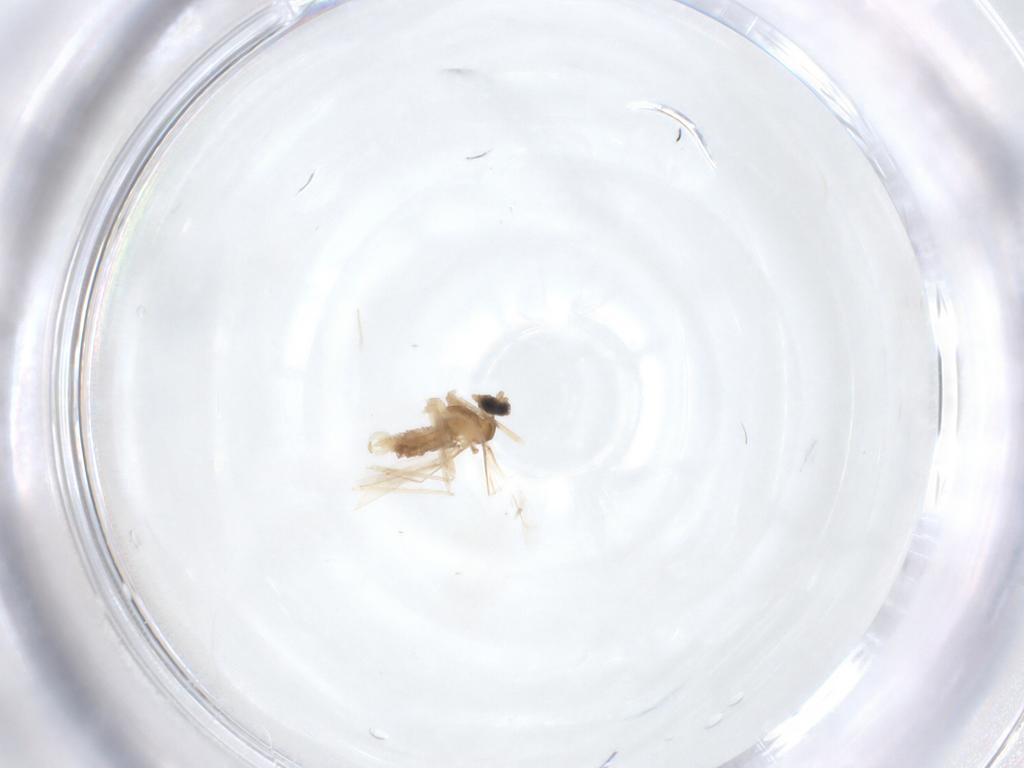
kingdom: Animalia
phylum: Arthropoda
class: Insecta
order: Diptera
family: Cecidomyiidae
